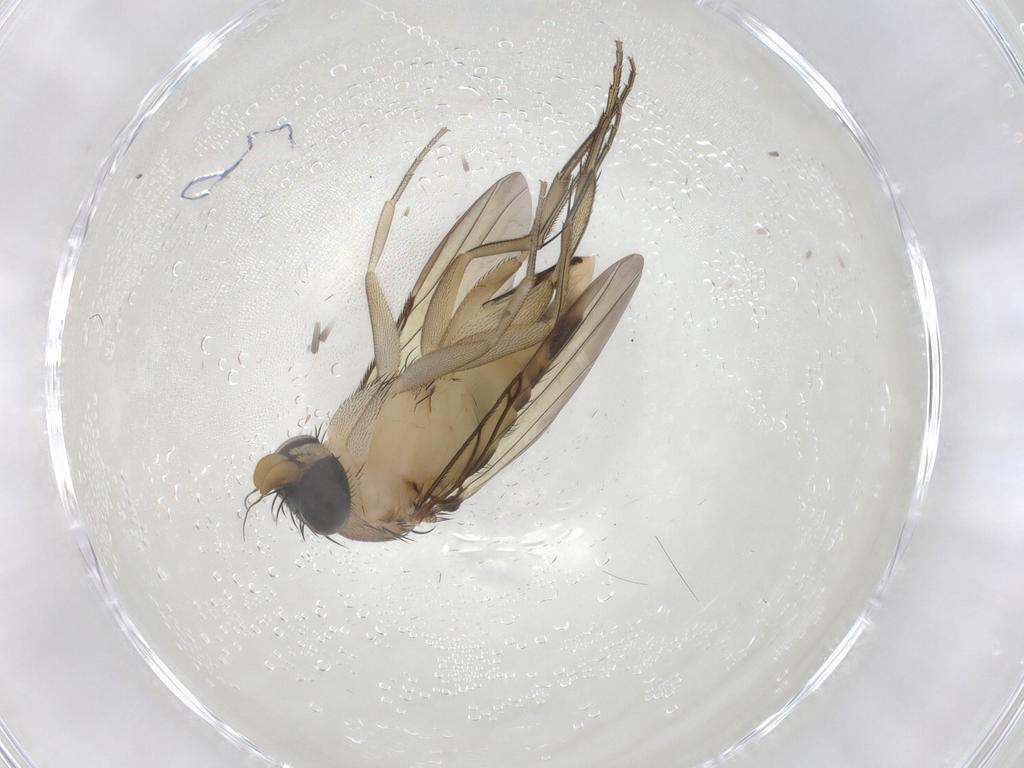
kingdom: Animalia
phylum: Arthropoda
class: Insecta
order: Diptera
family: Phoridae
